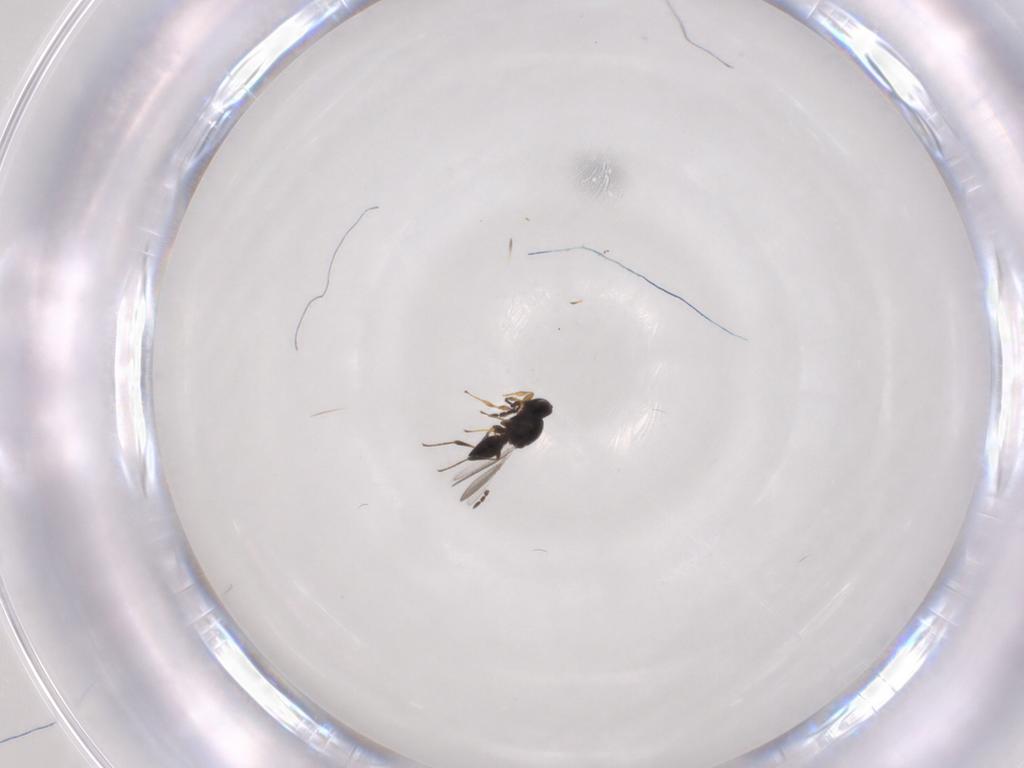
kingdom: Animalia
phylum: Arthropoda
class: Insecta
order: Hymenoptera
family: Platygastridae
